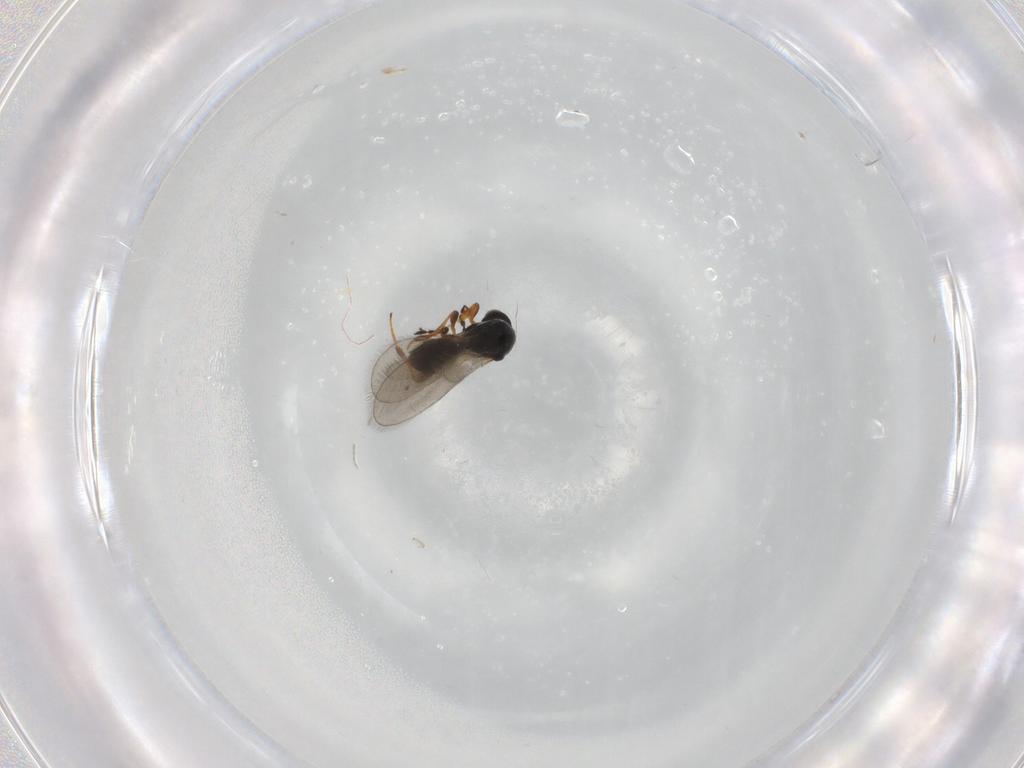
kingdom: Animalia
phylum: Arthropoda
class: Insecta
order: Hymenoptera
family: Platygastridae
